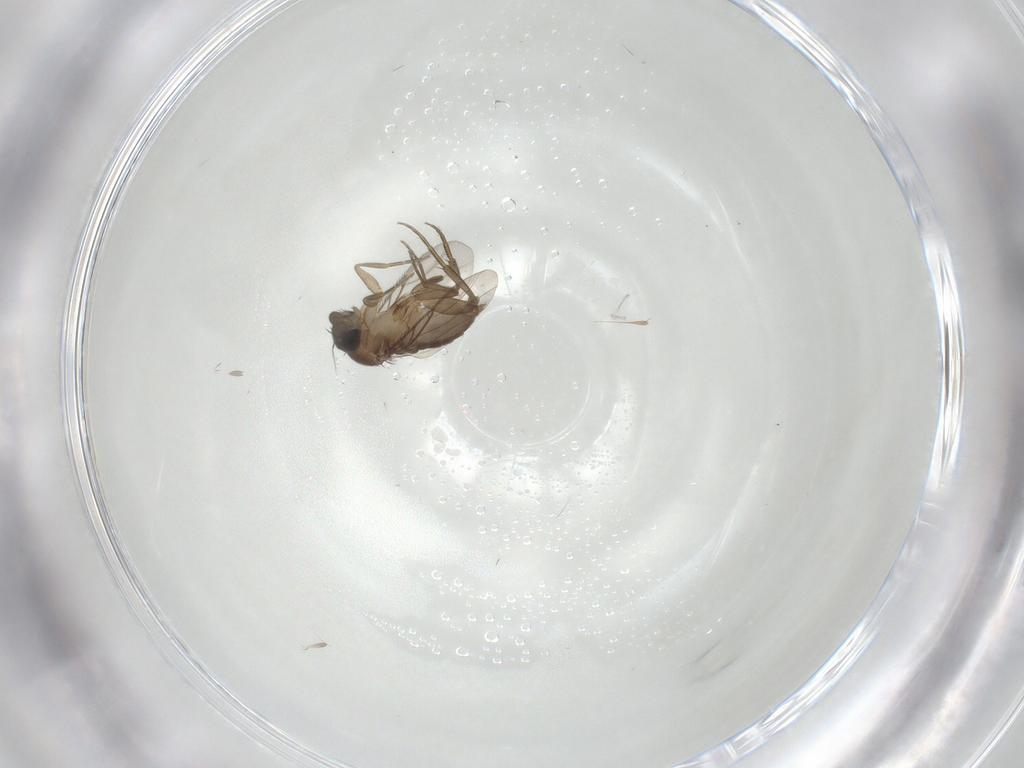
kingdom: Animalia
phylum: Arthropoda
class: Insecta
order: Diptera
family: Phoridae
